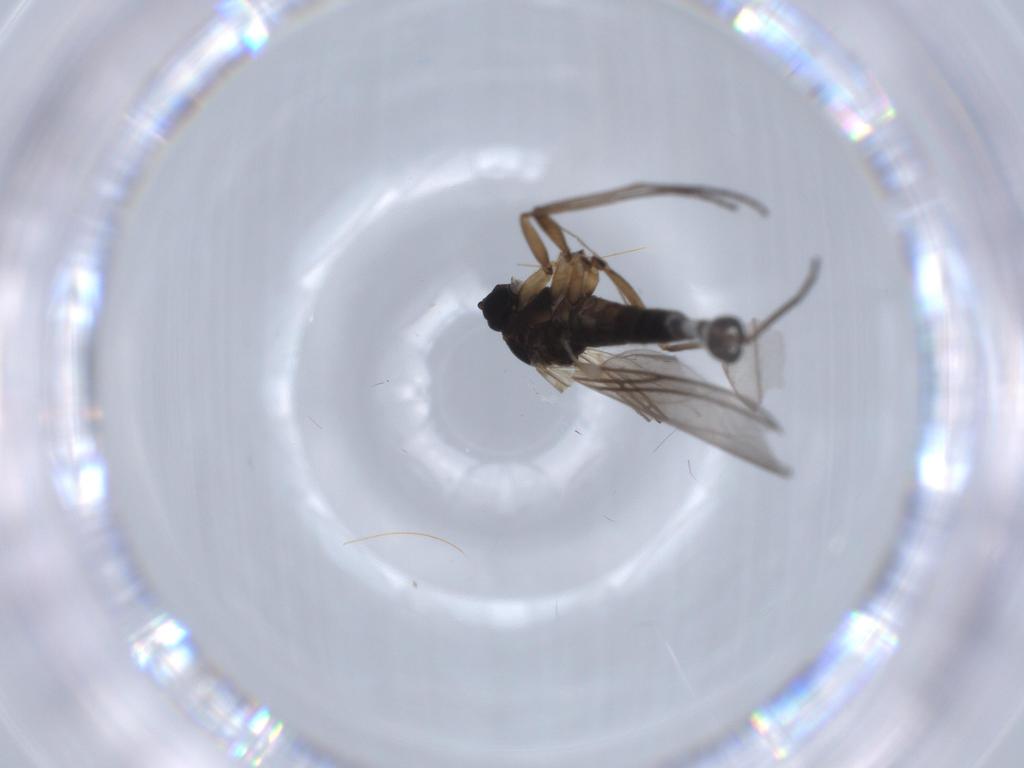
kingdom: Animalia
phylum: Arthropoda
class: Insecta
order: Diptera
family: Sciaridae
